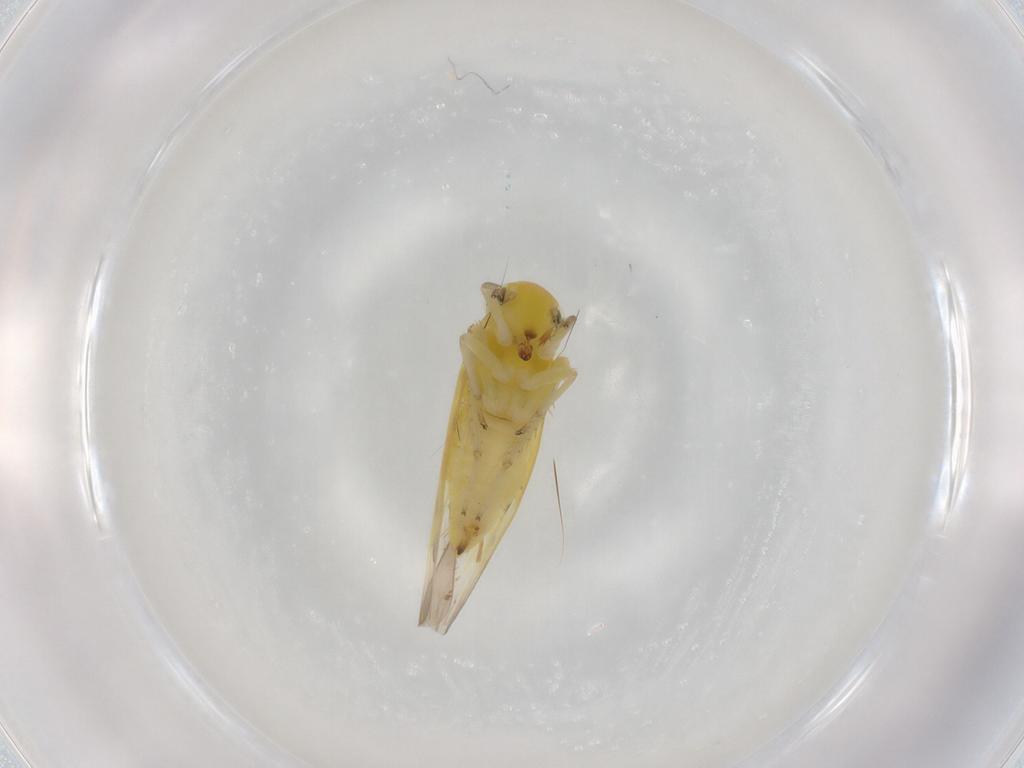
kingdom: Animalia
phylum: Arthropoda
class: Insecta
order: Hemiptera
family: Cicadellidae
